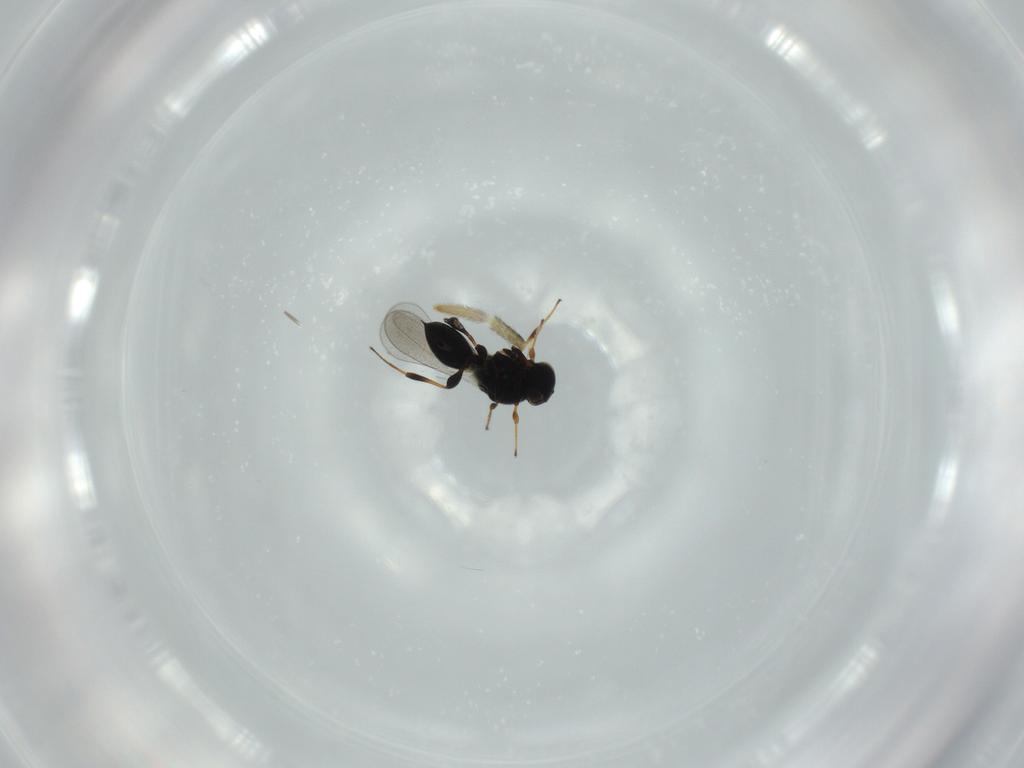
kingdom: Animalia
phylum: Arthropoda
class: Insecta
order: Hymenoptera
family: Platygastridae
